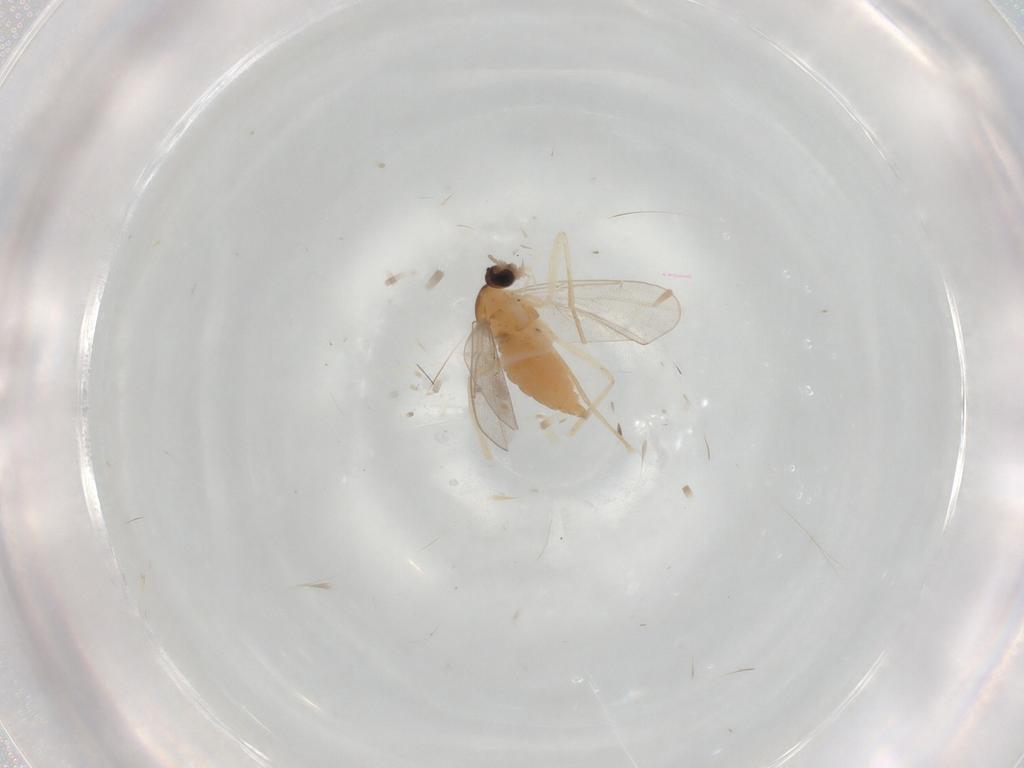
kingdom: Animalia
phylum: Arthropoda
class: Insecta
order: Diptera
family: Cecidomyiidae
